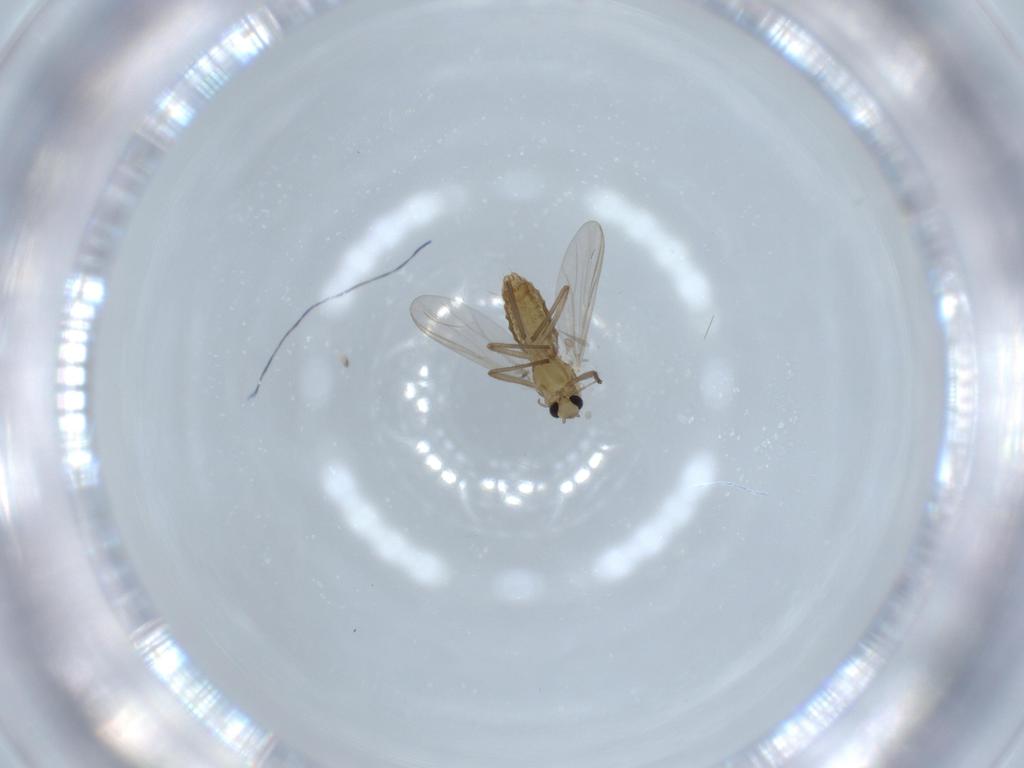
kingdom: Animalia
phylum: Arthropoda
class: Insecta
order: Diptera
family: Chironomidae
